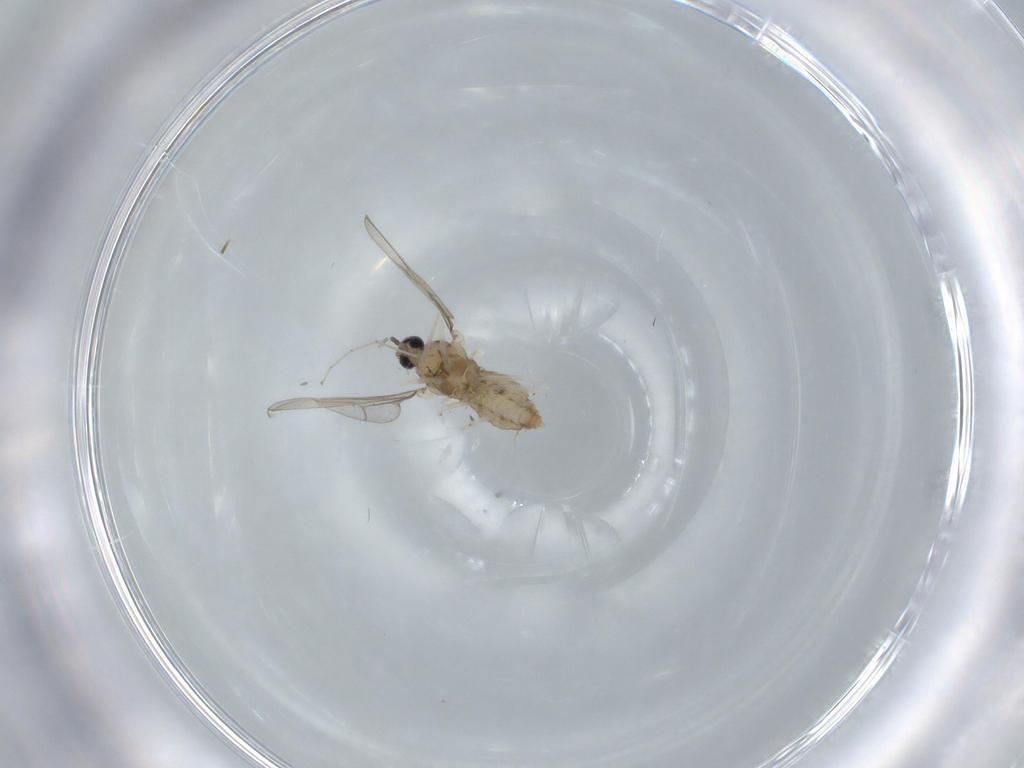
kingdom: Animalia
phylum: Arthropoda
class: Insecta
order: Diptera
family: Cecidomyiidae
